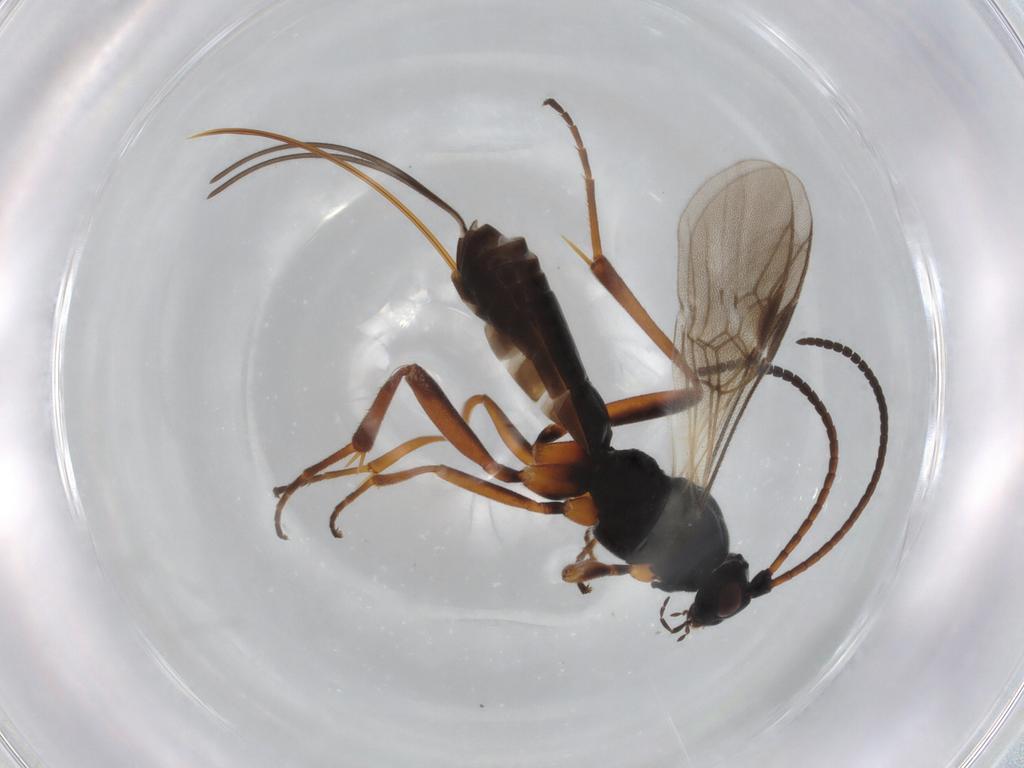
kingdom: Animalia
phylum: Arthropoda
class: Insecta
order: Hymenoptera
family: Braconidae
